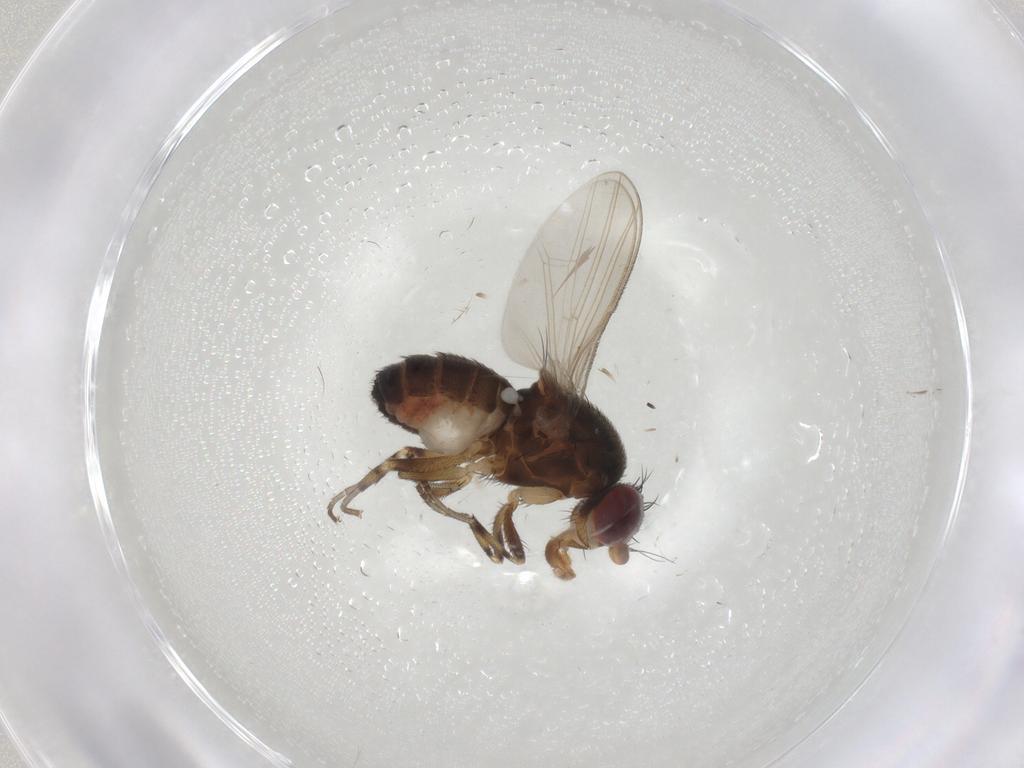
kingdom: Animalia
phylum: Arthropoda
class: Insecta
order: Diptera
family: Heleomyzidae
